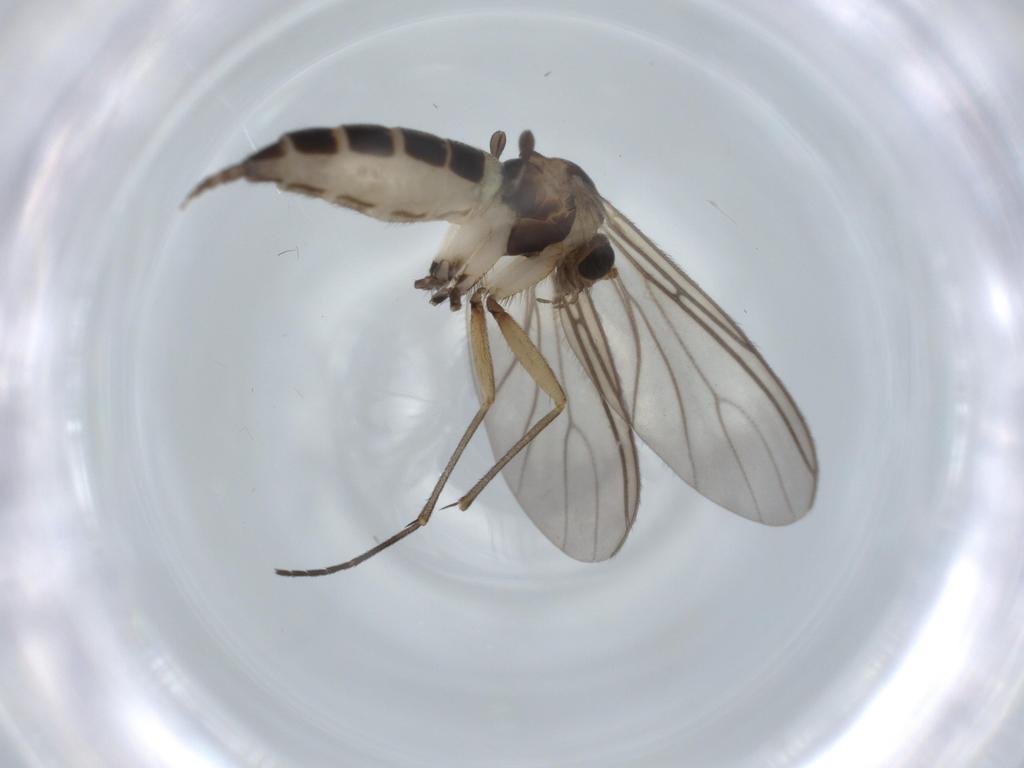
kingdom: Animalia
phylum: Arthropoda
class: Insecta
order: Diptera
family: Sciaridae
